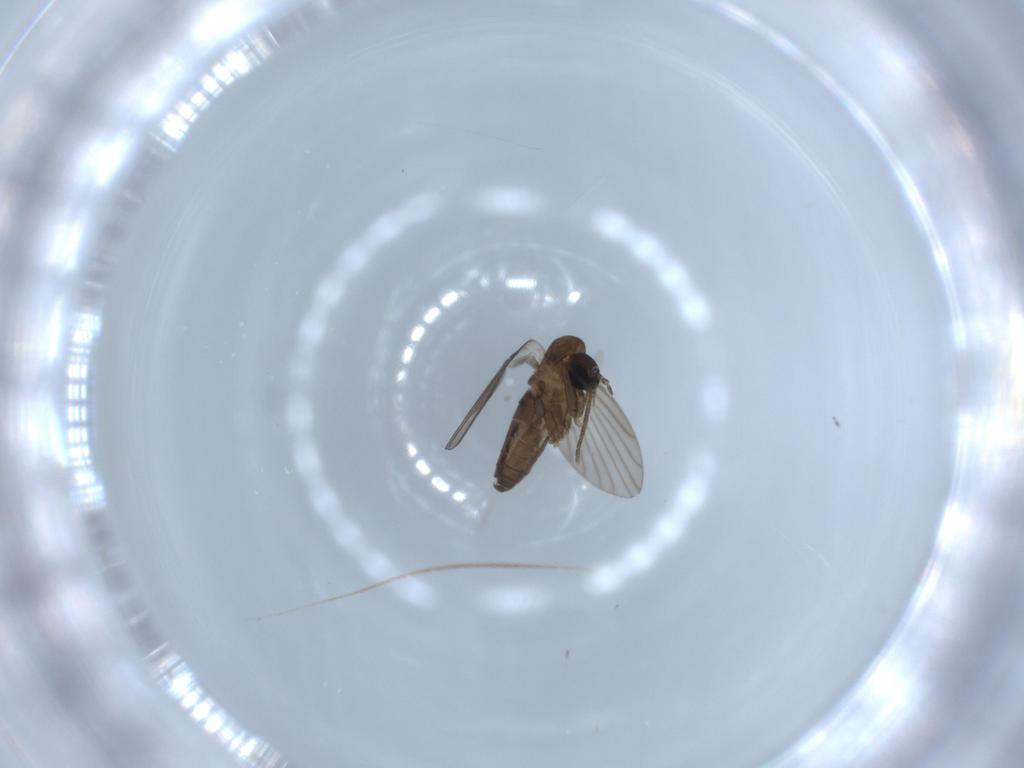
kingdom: Animalia
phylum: Arthropoda
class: Insecta
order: Diptera
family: Psychodidae
